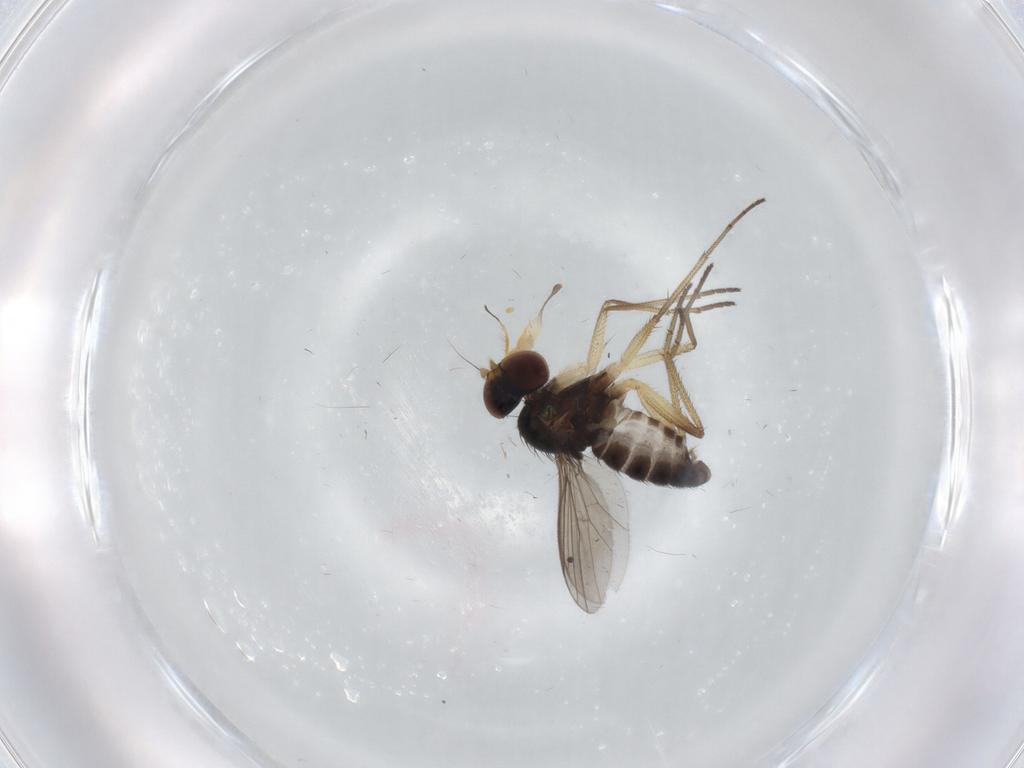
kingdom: Animalia
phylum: Arthropoda
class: Insecta
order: Diptera
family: Dolichopodidae
